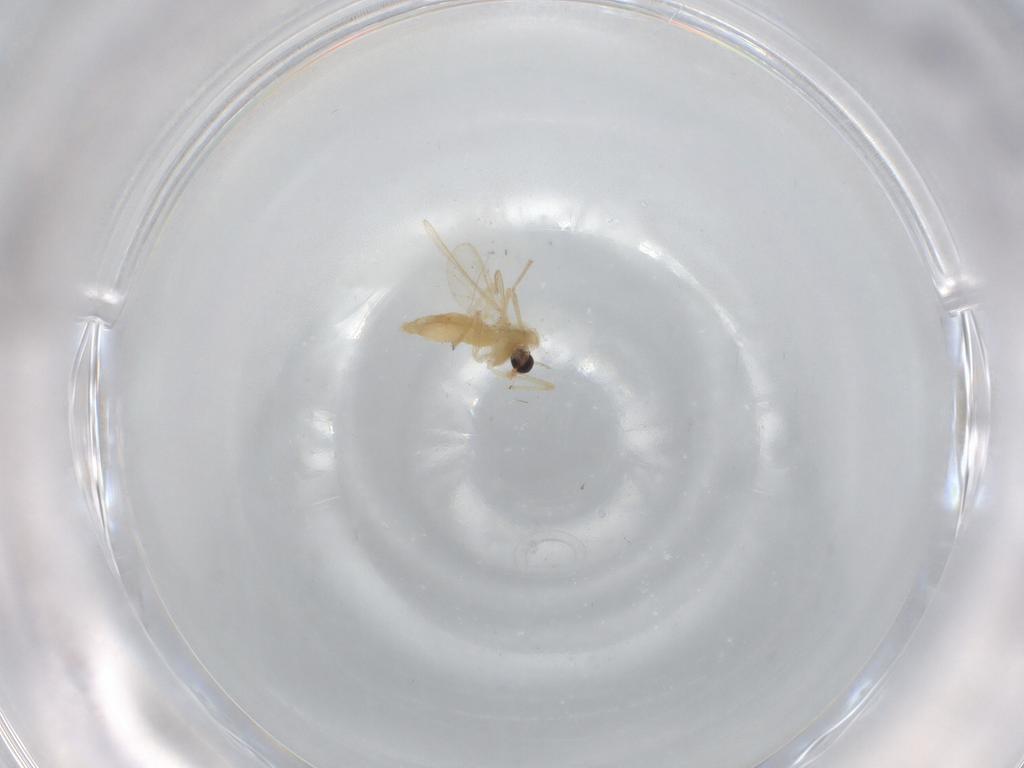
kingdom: Animalia
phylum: Arthropoda
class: Insecta
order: Diptera
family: Chironomidae
